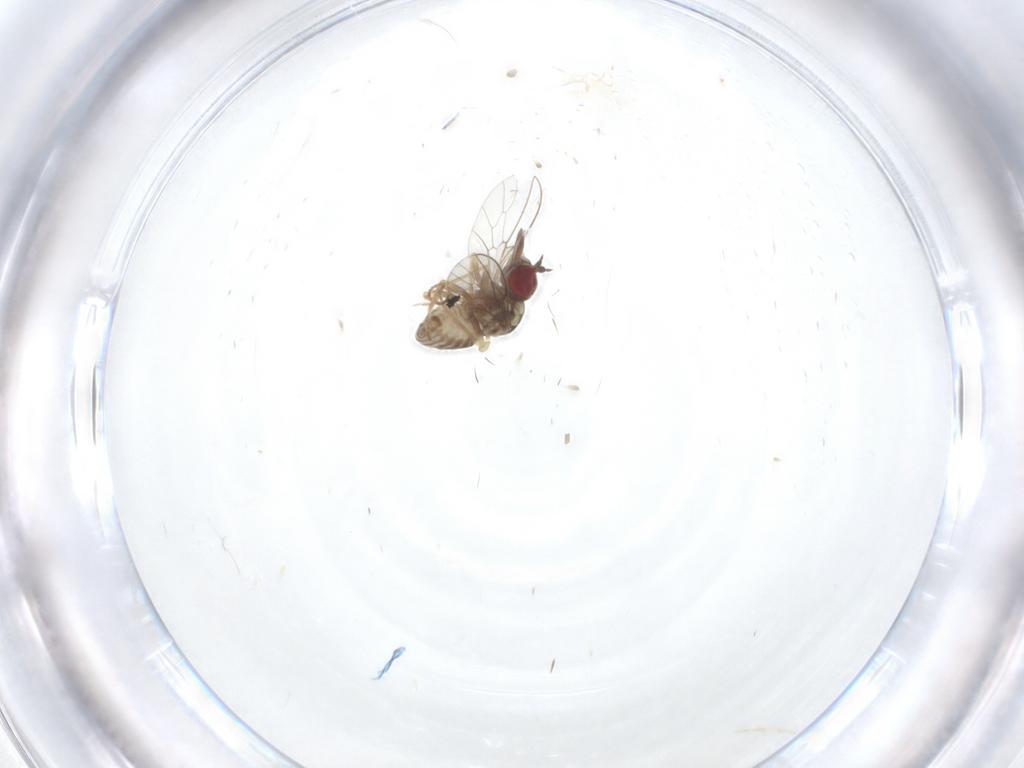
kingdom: Animalia
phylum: Arthropoda
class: Insecta
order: Diptera
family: Bombyliidae
